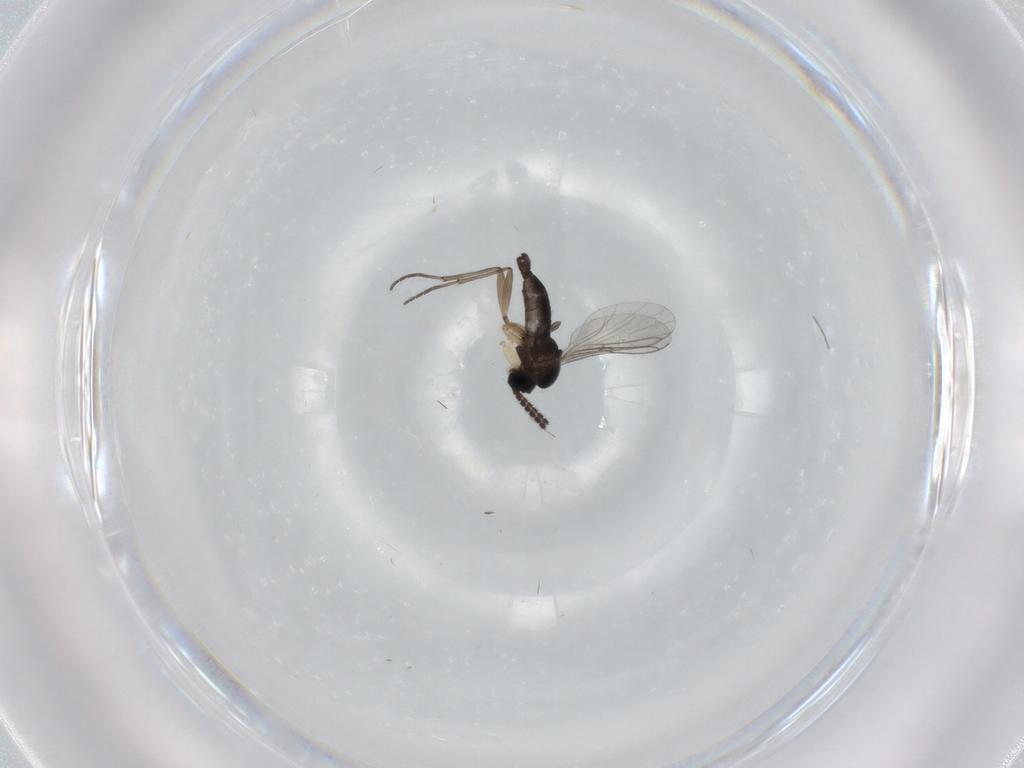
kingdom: Animalia
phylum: Arthropoda
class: Insecta
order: Diptera
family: Sciaridae
